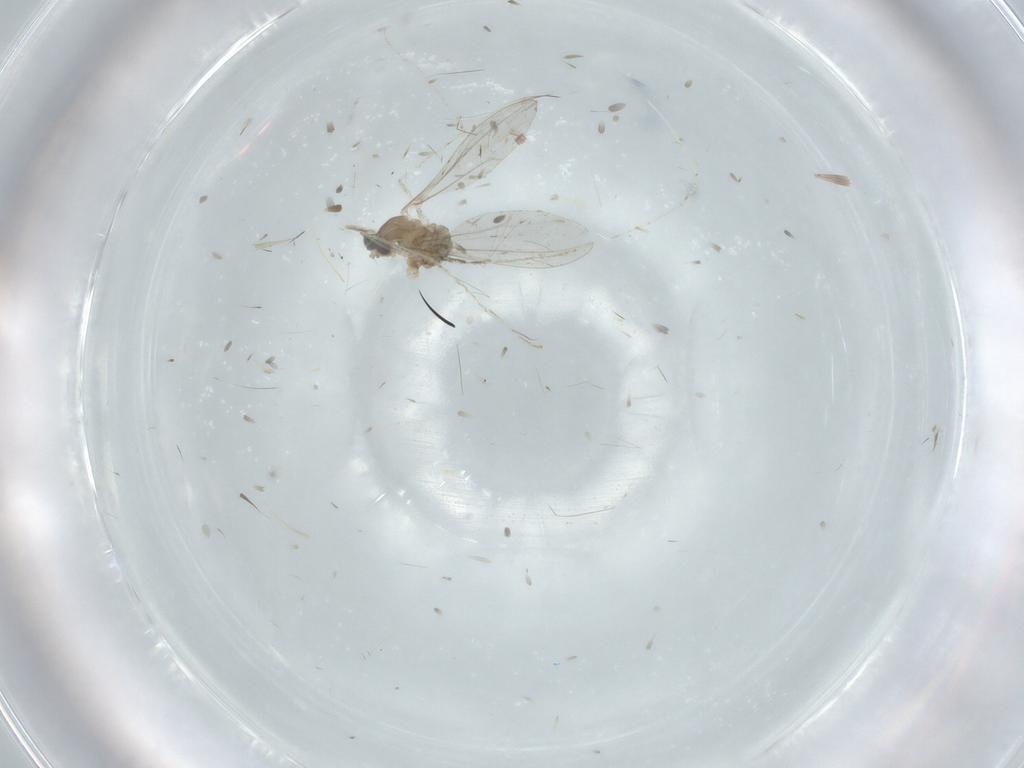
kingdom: Animalia
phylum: Arthropoda
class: Insecta
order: Diptera
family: Cecidomyiidae
